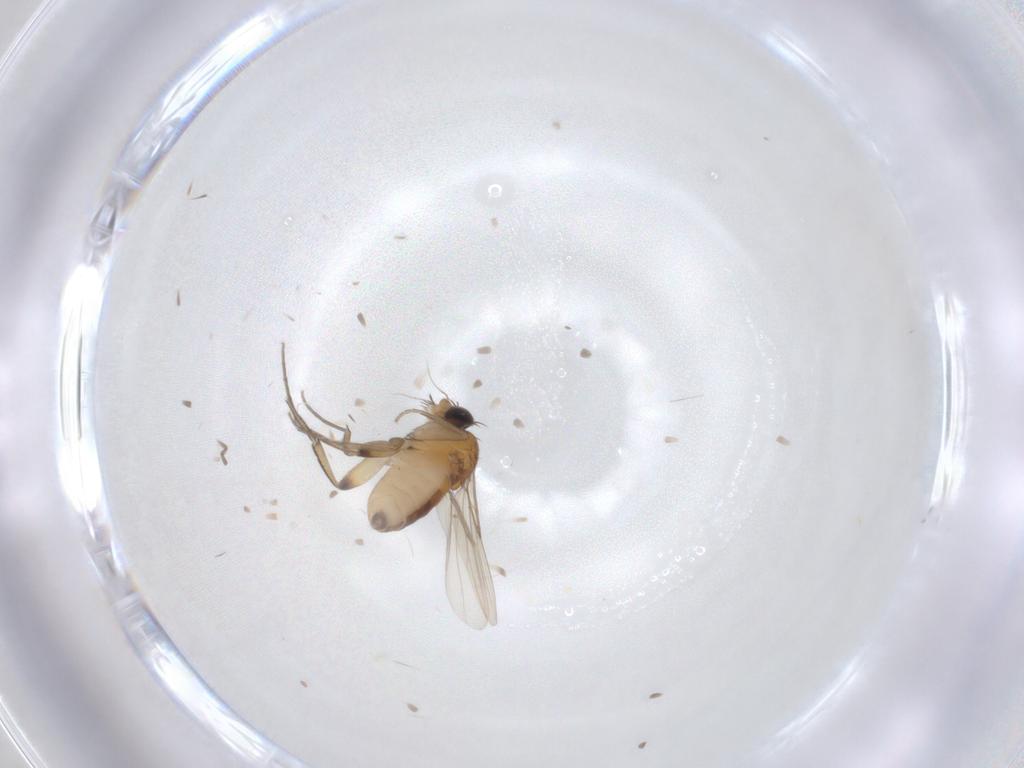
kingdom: Animalia
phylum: Arthropoda
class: Insecta
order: Diptera
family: Phoridae
